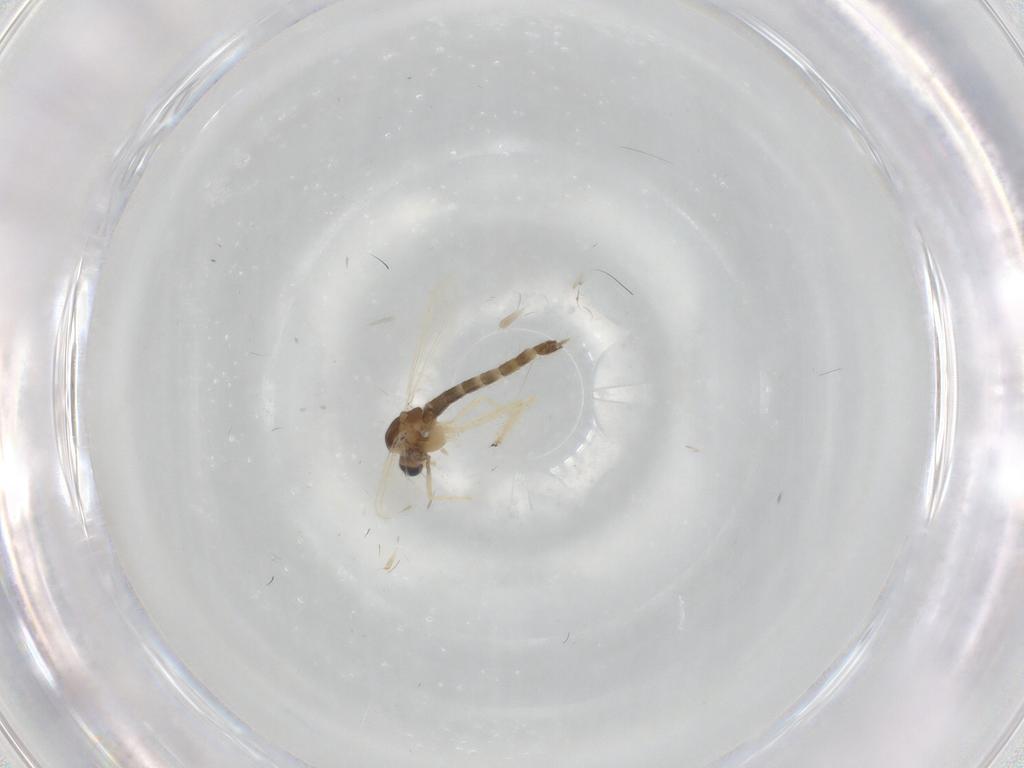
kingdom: Animalia
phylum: Arthropoda
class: Insecta
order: Diptera
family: Chironomidae
